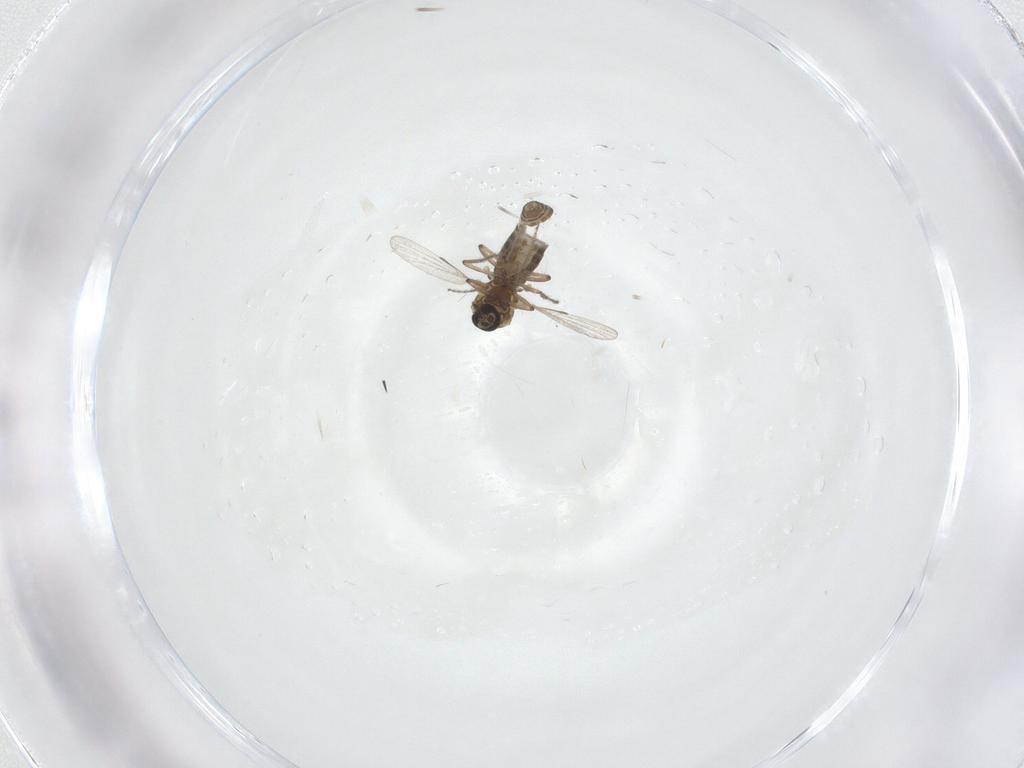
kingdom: Animalia
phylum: Arthropoda
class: Insecta
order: Diptera
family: Ceratopogonidae
